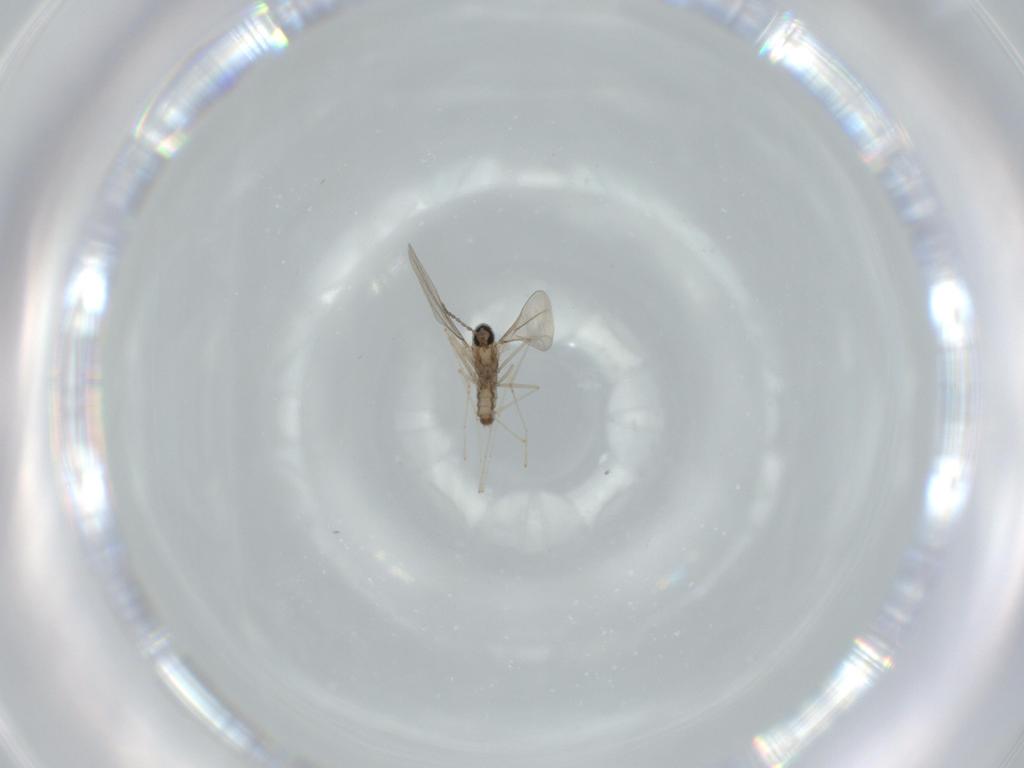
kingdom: Animalia
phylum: Arthropoda
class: Insecta
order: Diptera
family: Cecidomyiidae
